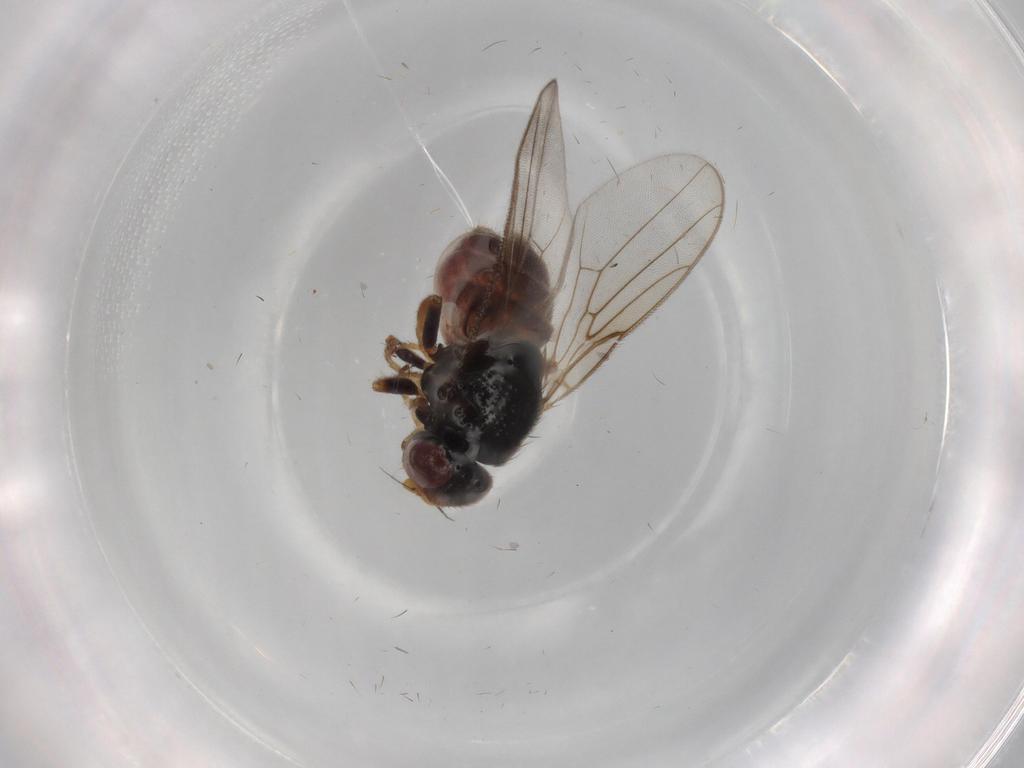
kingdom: Animalia
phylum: Arthropoda
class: Insecta
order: Diptera
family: Chloropidae
